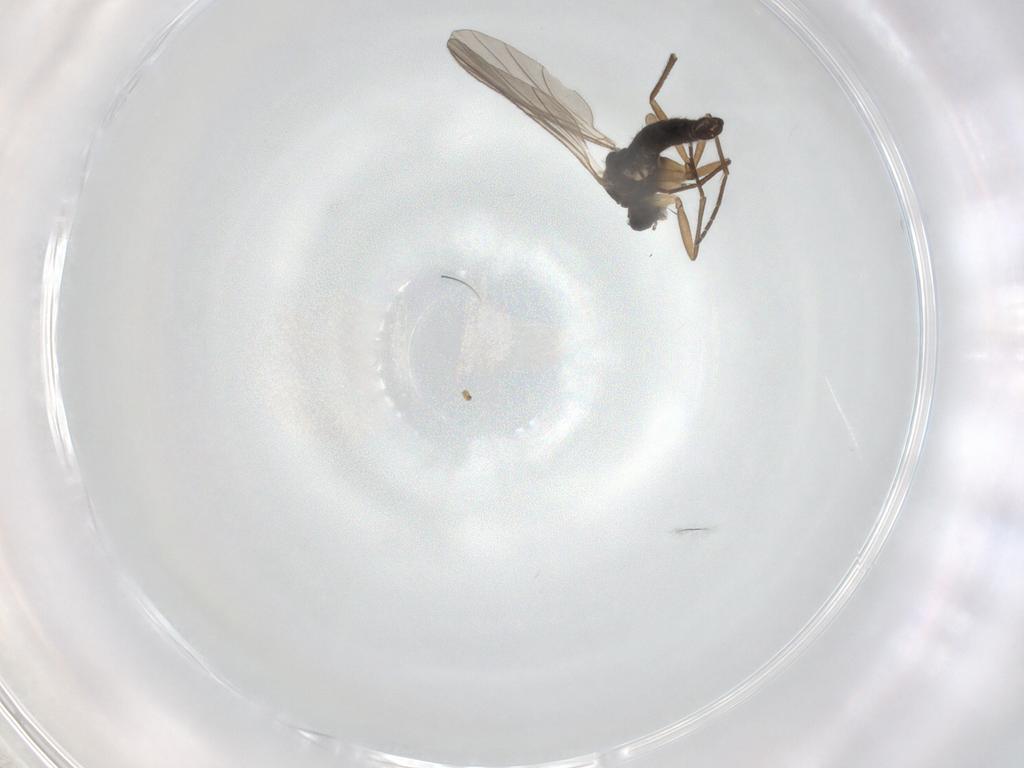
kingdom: Animalia
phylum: Arthropoda
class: Insecta
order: Diptera
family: Sciaridae
